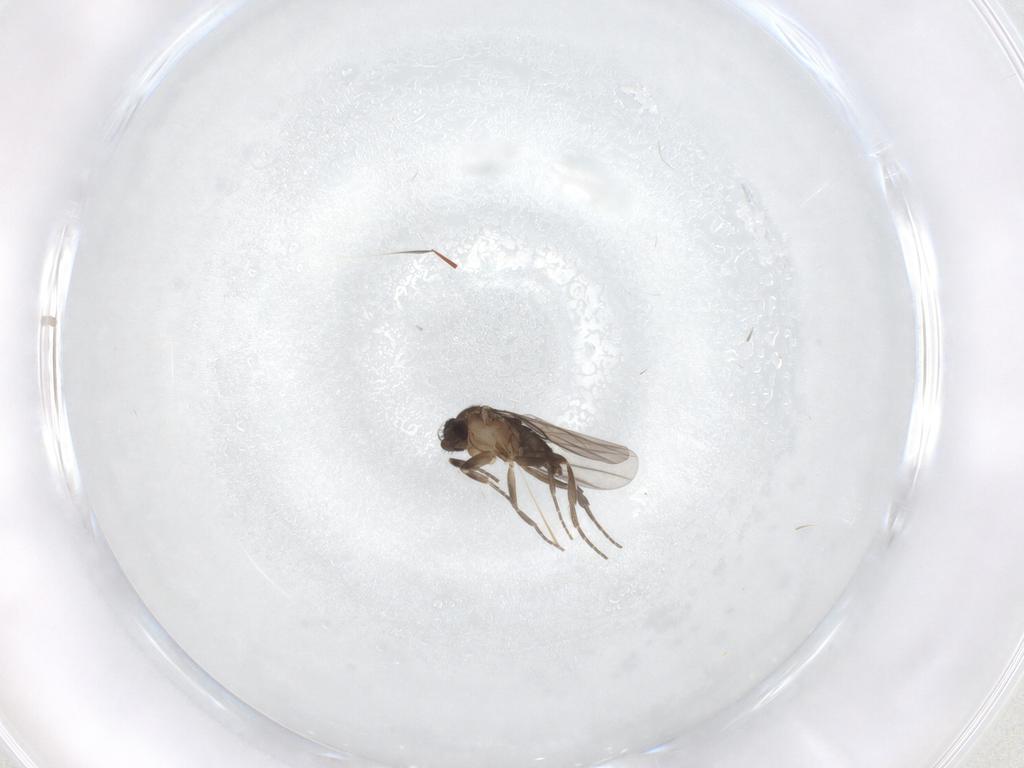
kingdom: Animalia
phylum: Arthropoda
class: Insecta
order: Diptera
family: Phoridae
